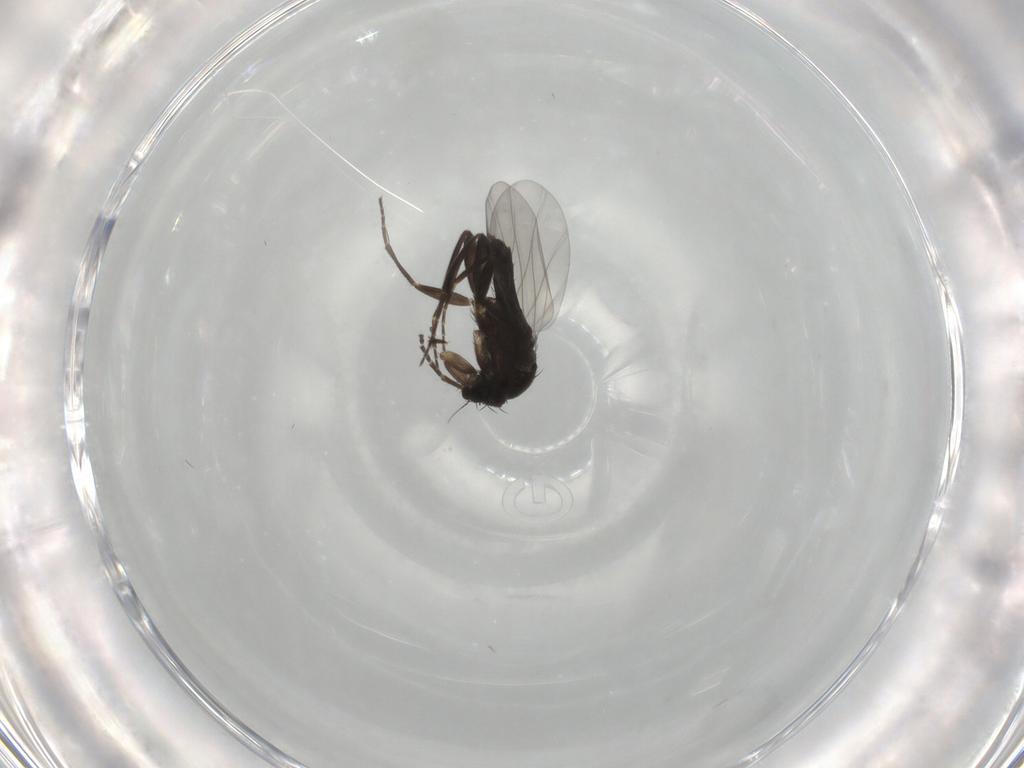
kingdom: Animalia
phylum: Arthropoda
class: Insecta
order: Diptera
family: Phoridae
